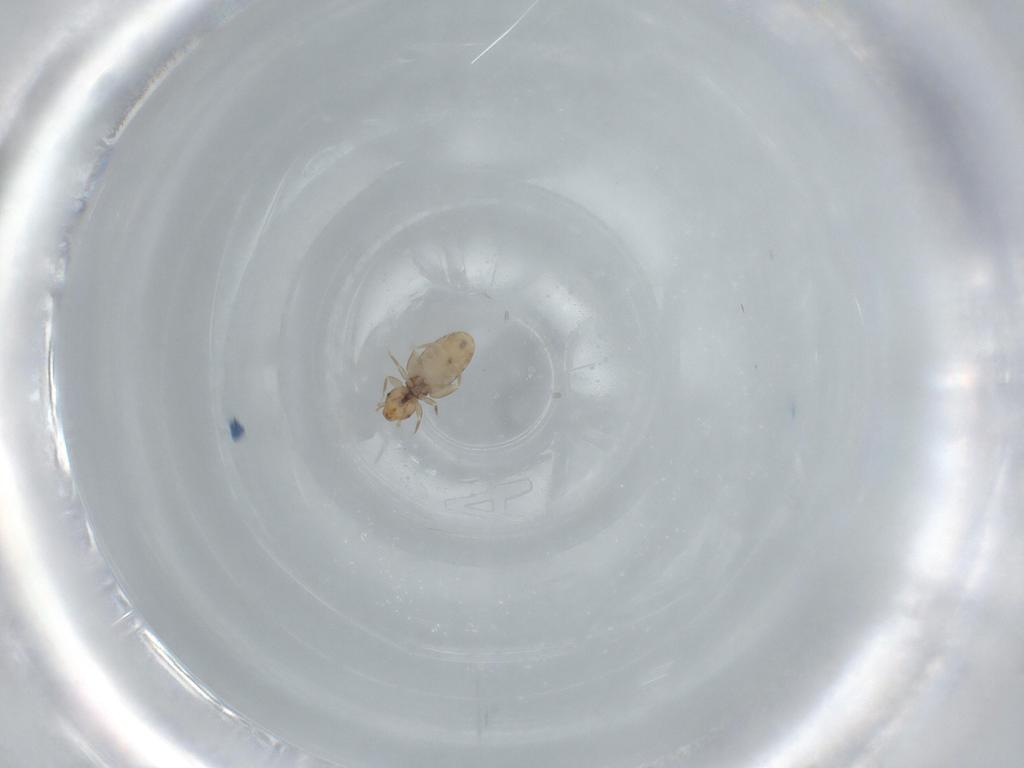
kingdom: Animalia
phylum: Arthropoda
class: Insecta
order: Psocodea
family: Liposcelididae
